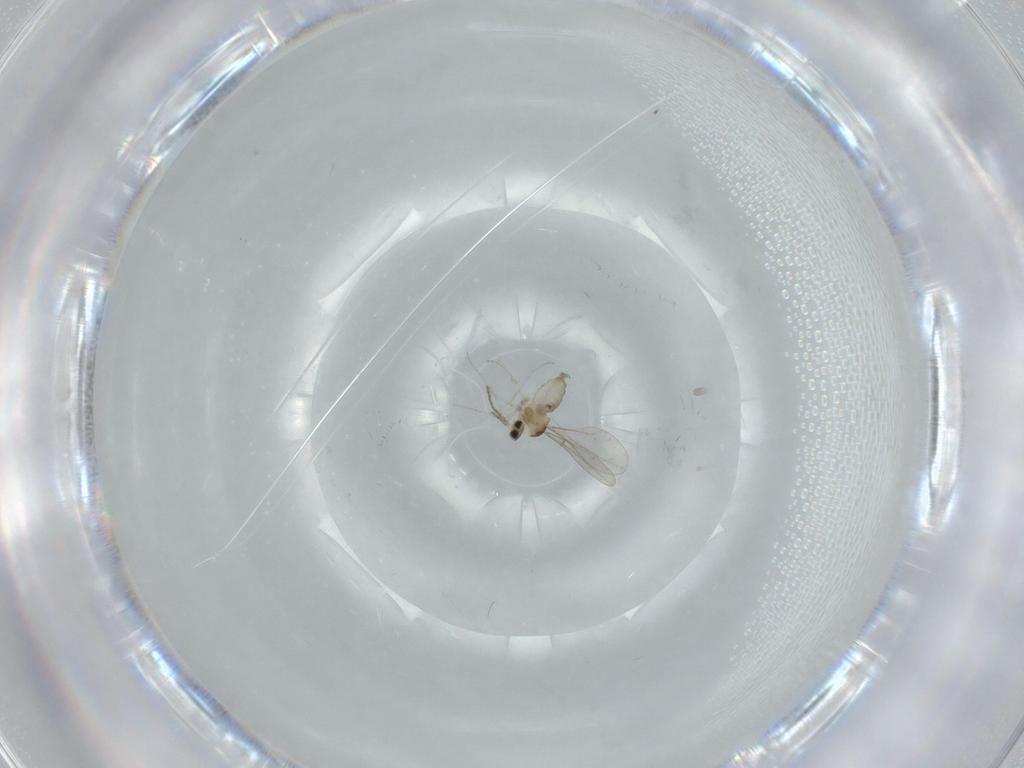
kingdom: Animalia
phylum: Arthropoda
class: Insecta
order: Diptera
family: Cecidomyiidae
